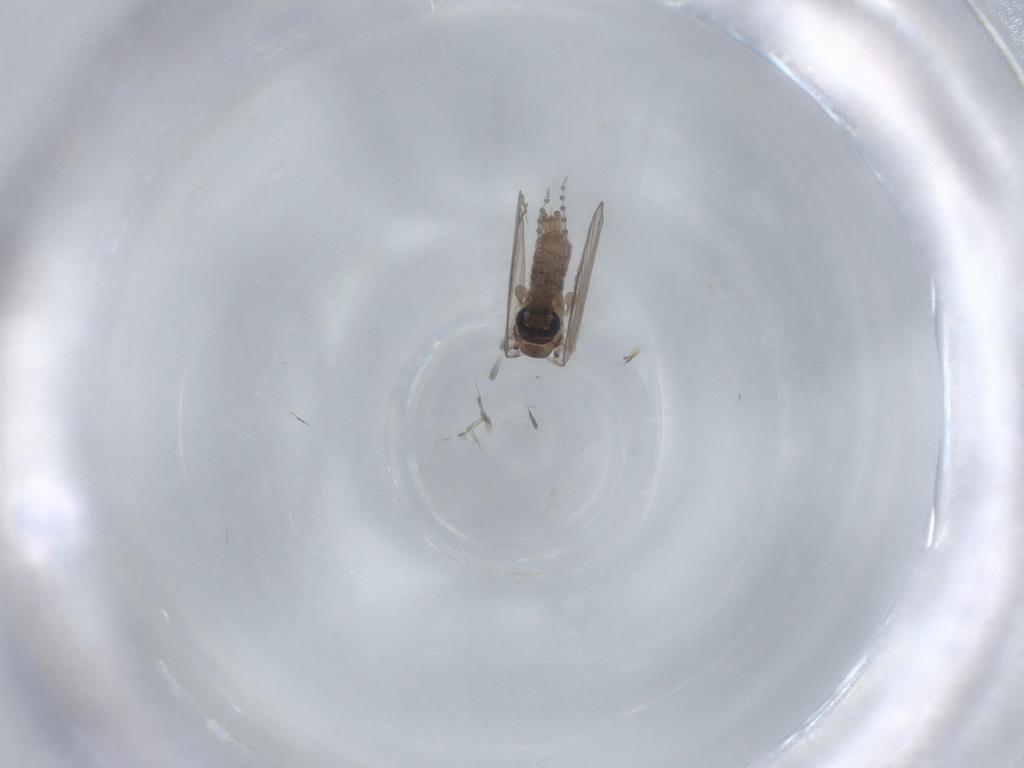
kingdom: Animalia
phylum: Arthropoda
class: Insecta
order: Diptera
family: Psychodidae
